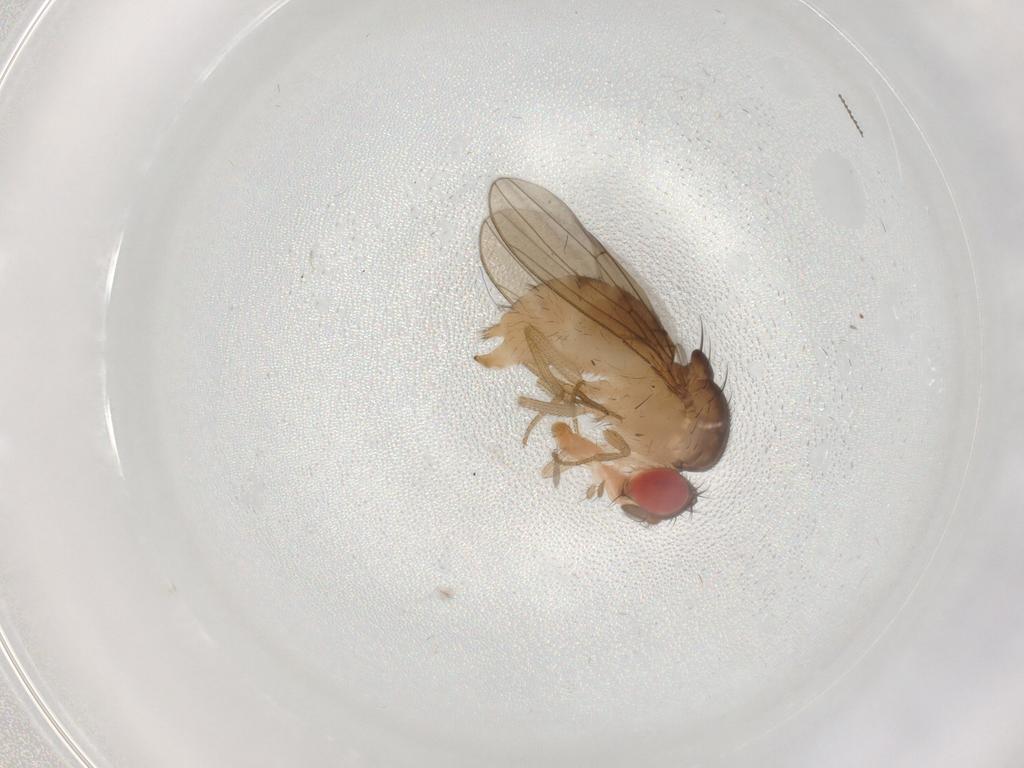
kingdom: Animalia
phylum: Arthropoda
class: Insecta
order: Diptera
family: Drosophilidae
